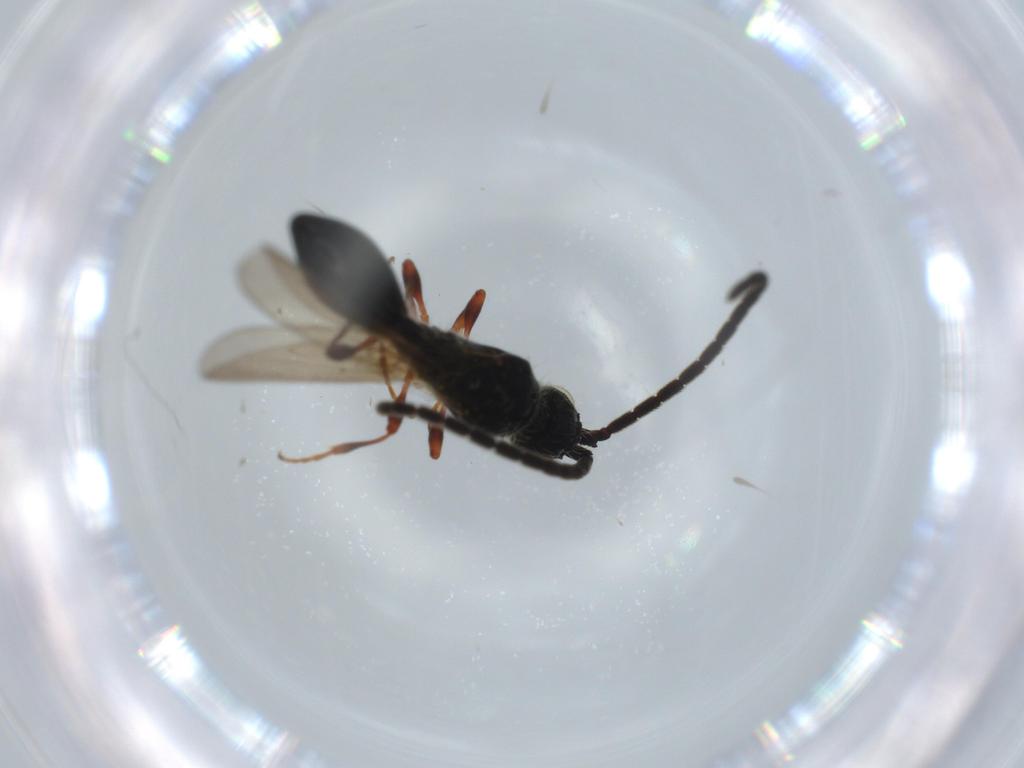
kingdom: Animalia
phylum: Arthropoda
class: Insecta
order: Hymenoptera
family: Diapriidae
